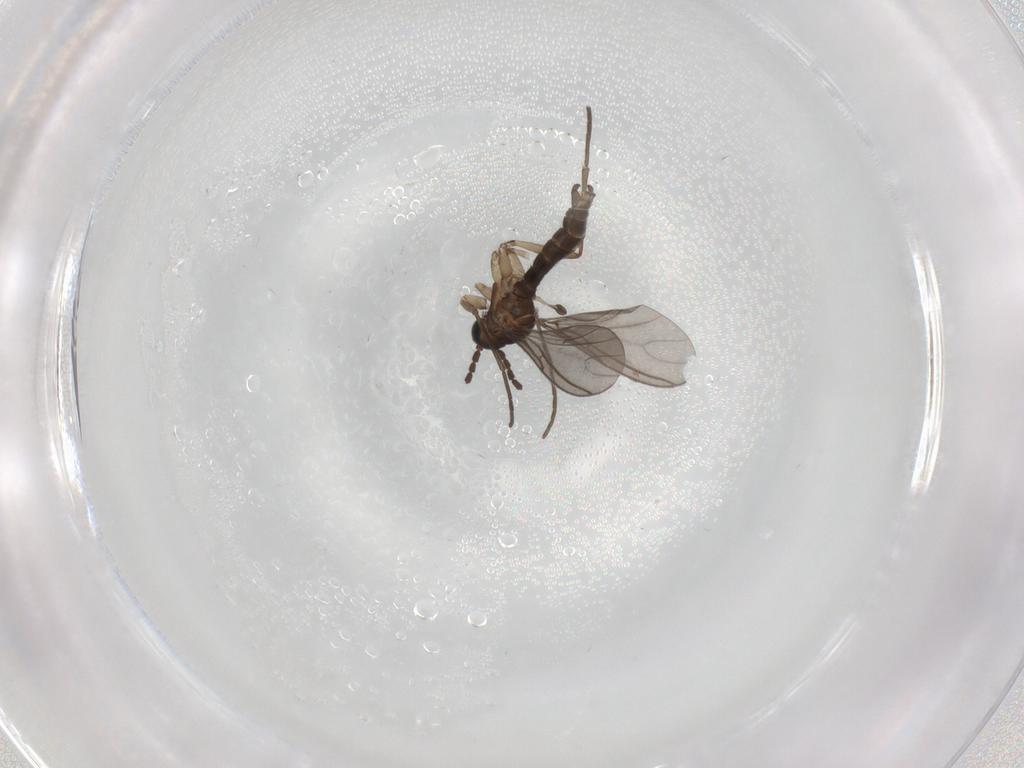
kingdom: Animalia
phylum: Arthropoda
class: Insecta
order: Diptera
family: Sciaridae
